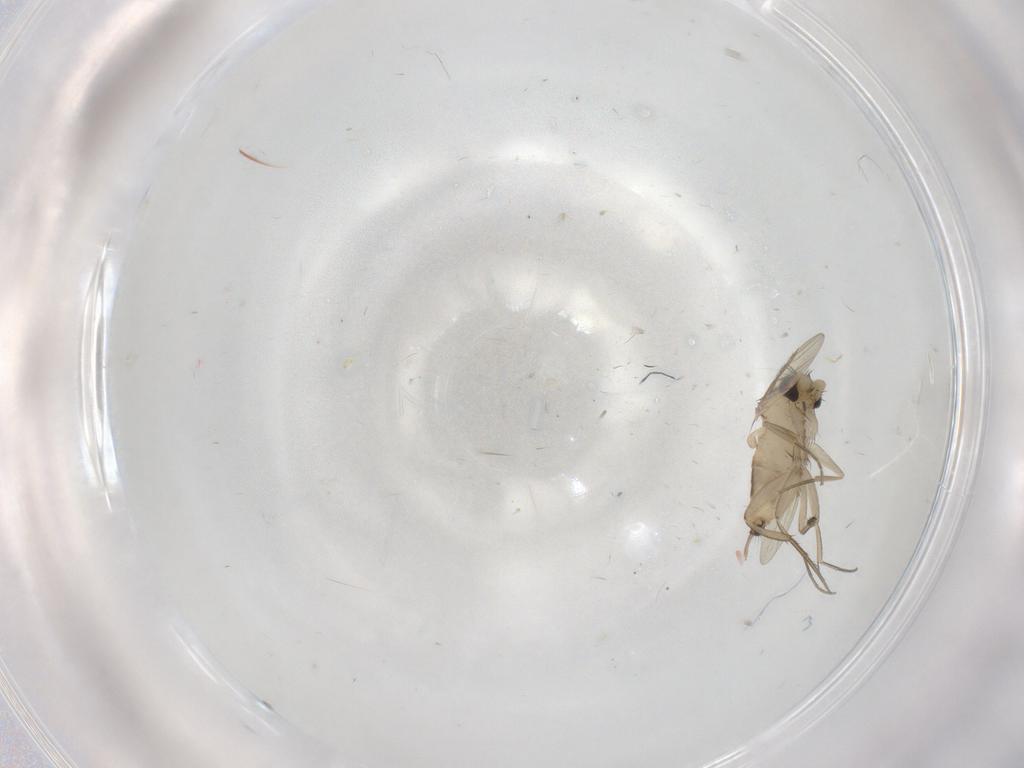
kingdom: Animalia
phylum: Arthropoda
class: Insecta
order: Diptera
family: Phoridae
